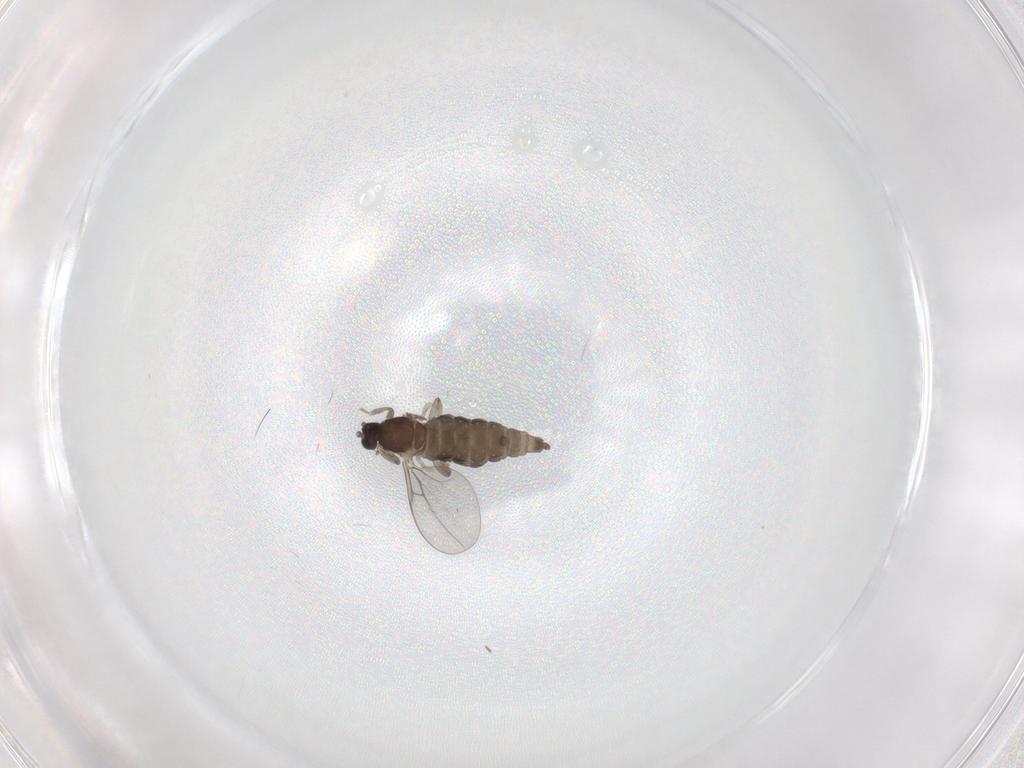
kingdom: Animalia
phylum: Arthropoda
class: Insecta
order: Diptera
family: Cecidomyiidae
